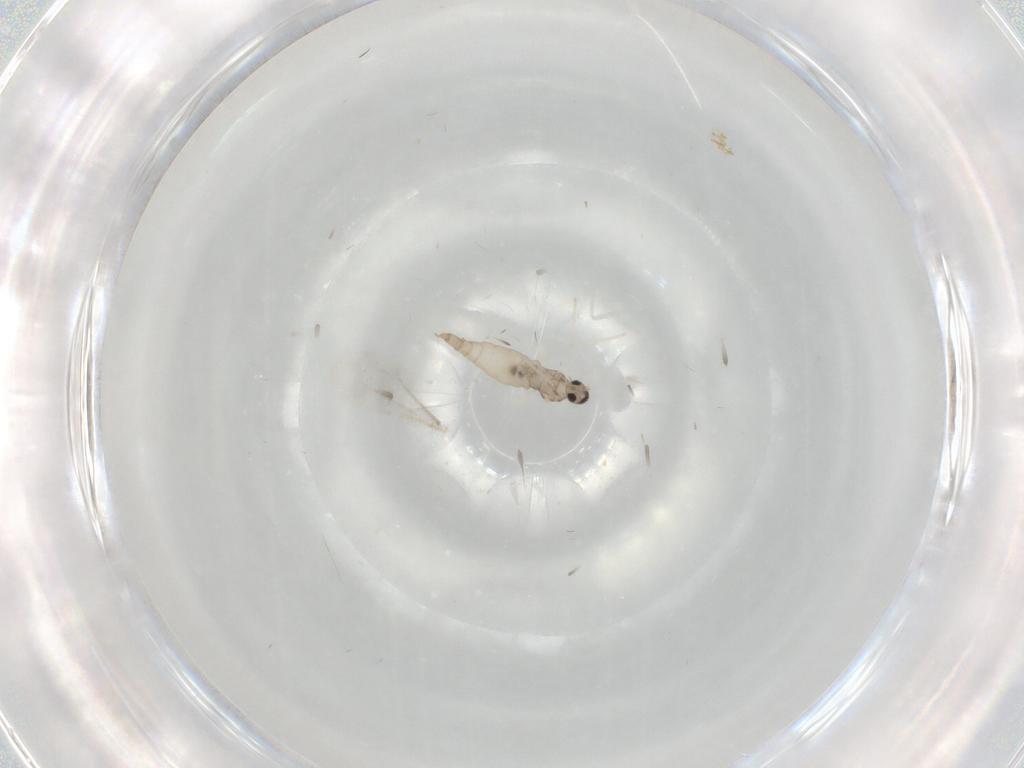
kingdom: Animalia
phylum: Arthropoda
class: Insecta
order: Diptera
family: Cecidomyiidae
